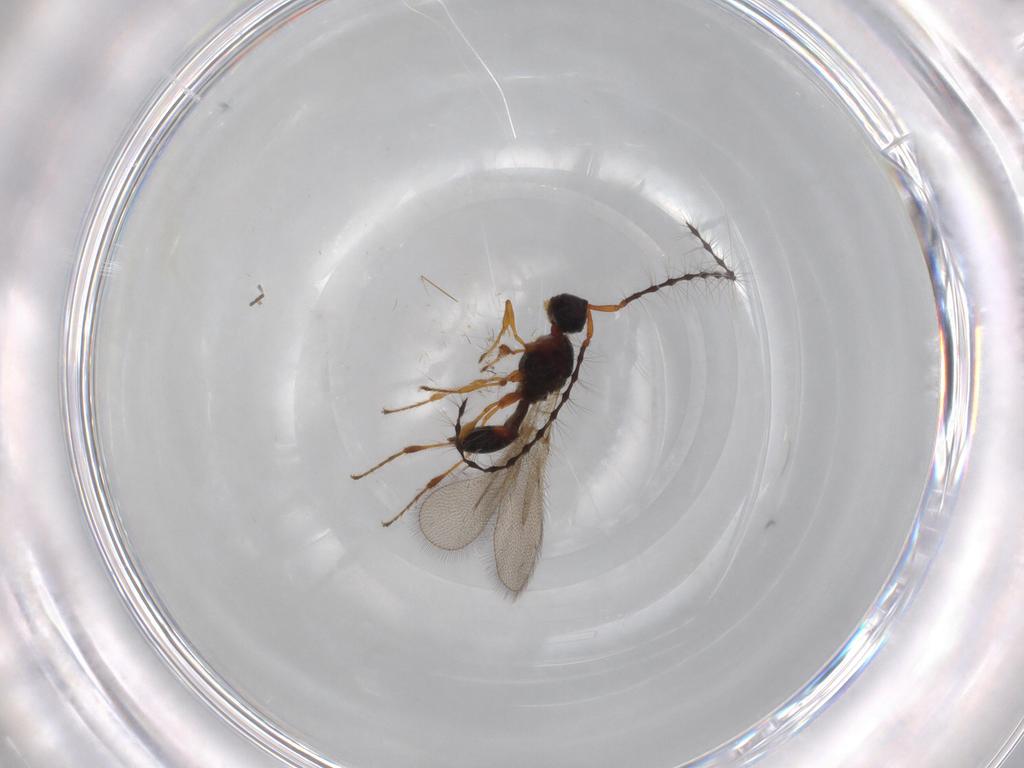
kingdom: Animalia
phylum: Arthropoda
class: Insecta
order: Hymenoptera
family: Diapriidae
